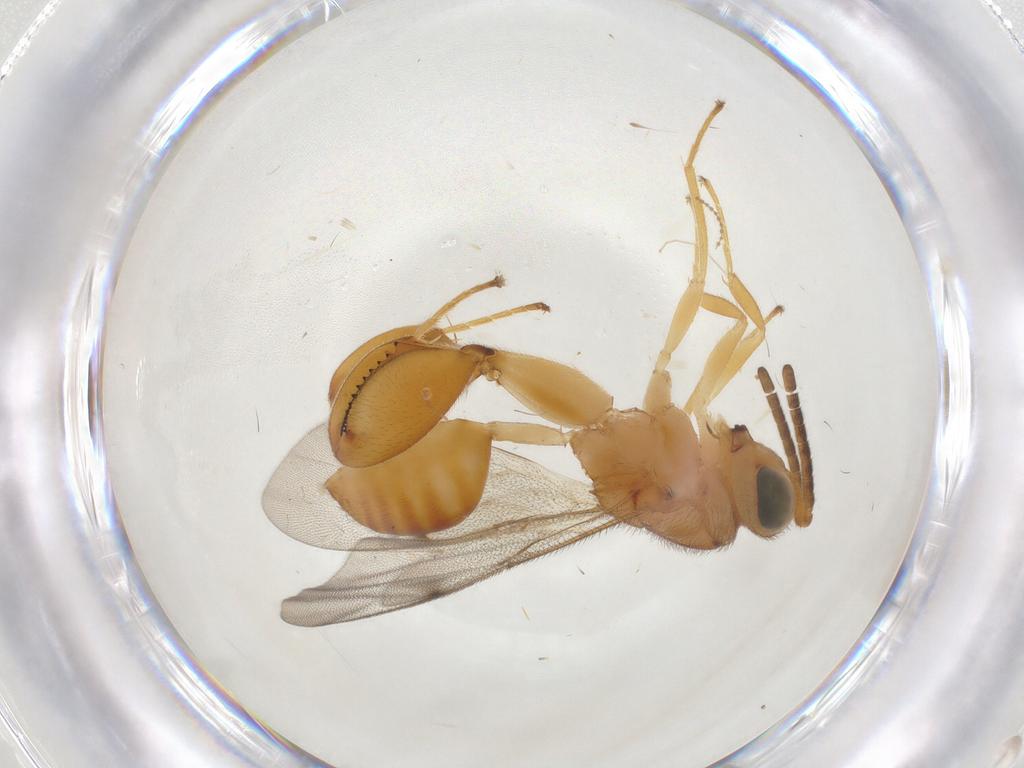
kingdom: Animalia
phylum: Arthropoda
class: Insecta
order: Hymenoptera
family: Chalcididae
